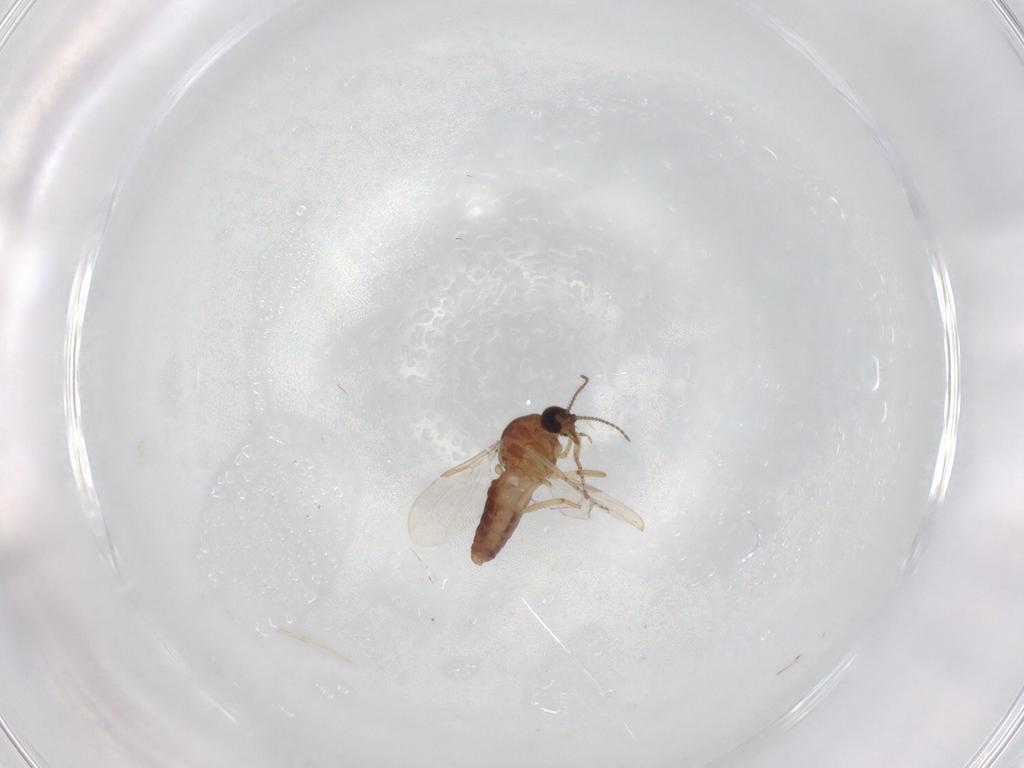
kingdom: Animalia
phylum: Arthropoda
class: Insecta
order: Diptera
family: Ceratopogonidae
